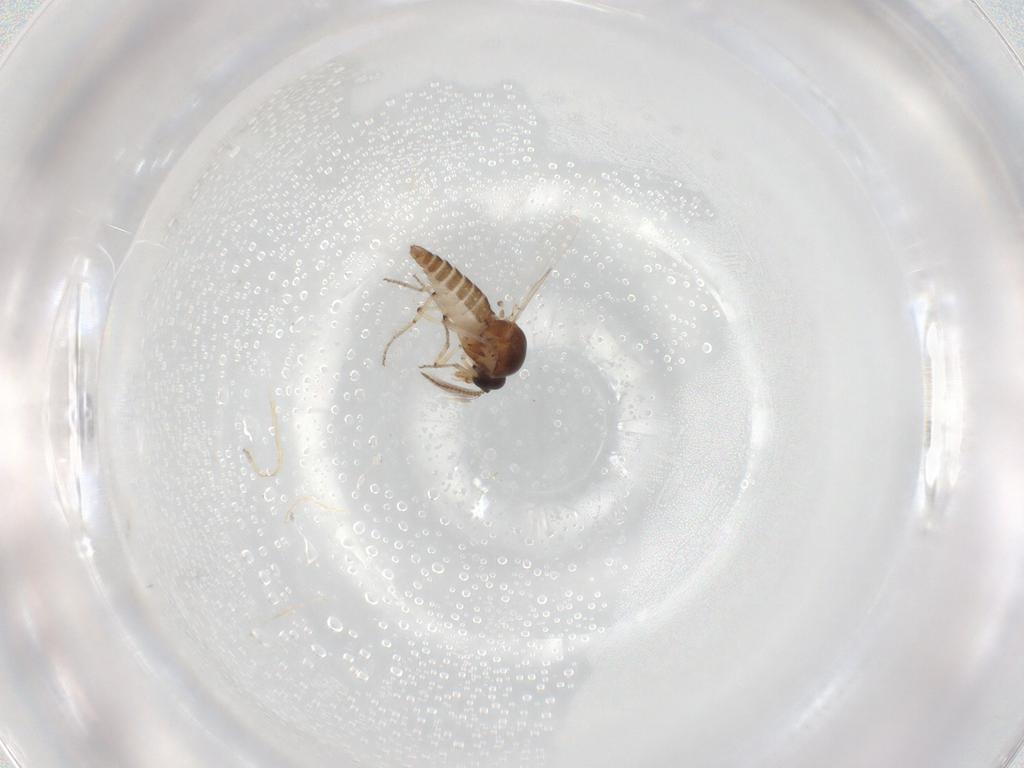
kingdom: Animalia
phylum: Arthropoda
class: Insecta
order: Diptera
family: Ceratopogonidae
